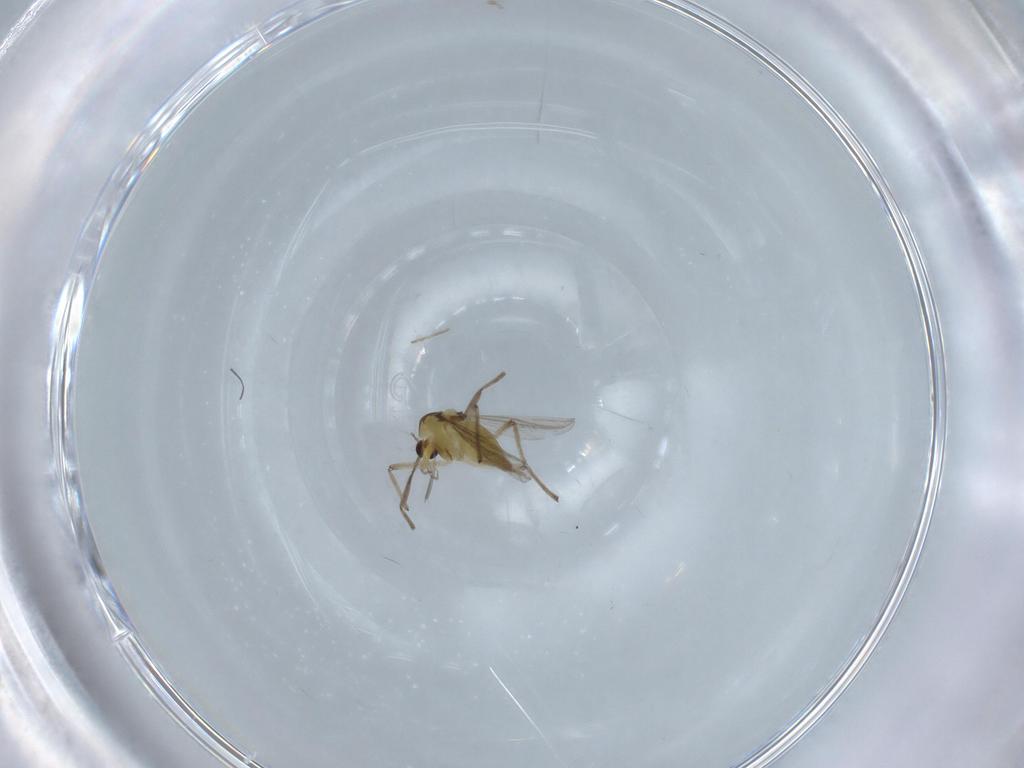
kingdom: Animalia
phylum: Arthropoda
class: Insecta
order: Diptera
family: Chironomidae
